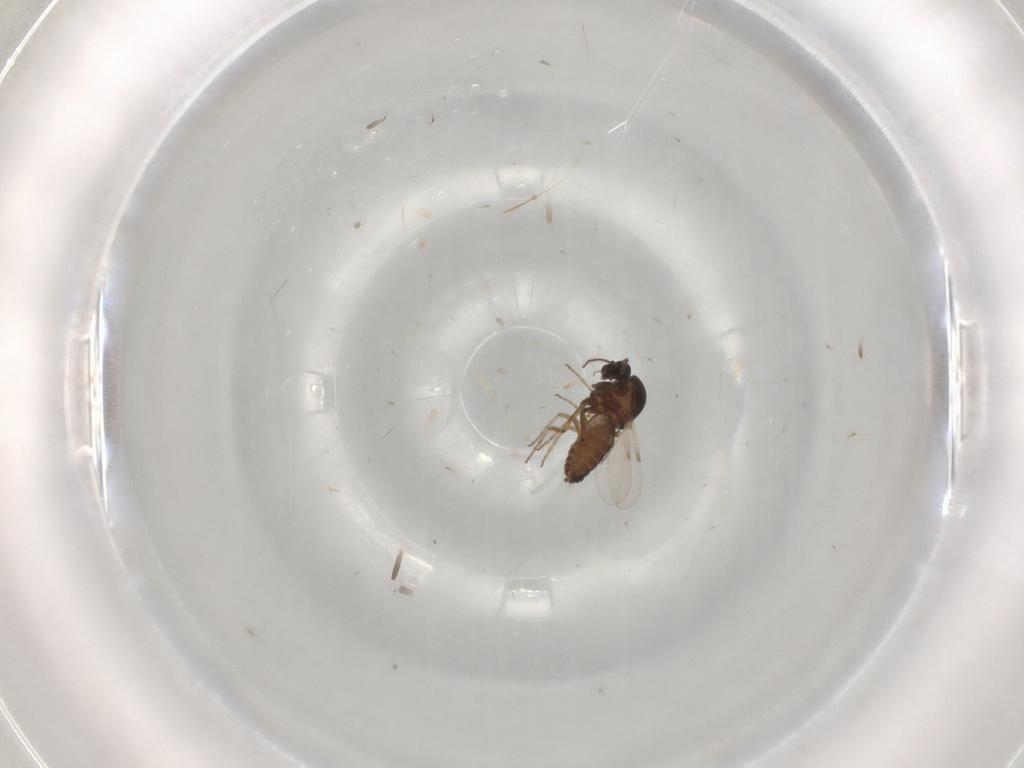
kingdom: Animalia
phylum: Arthropoda
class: Insecta
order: Diptera
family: Ceratopogonidae
